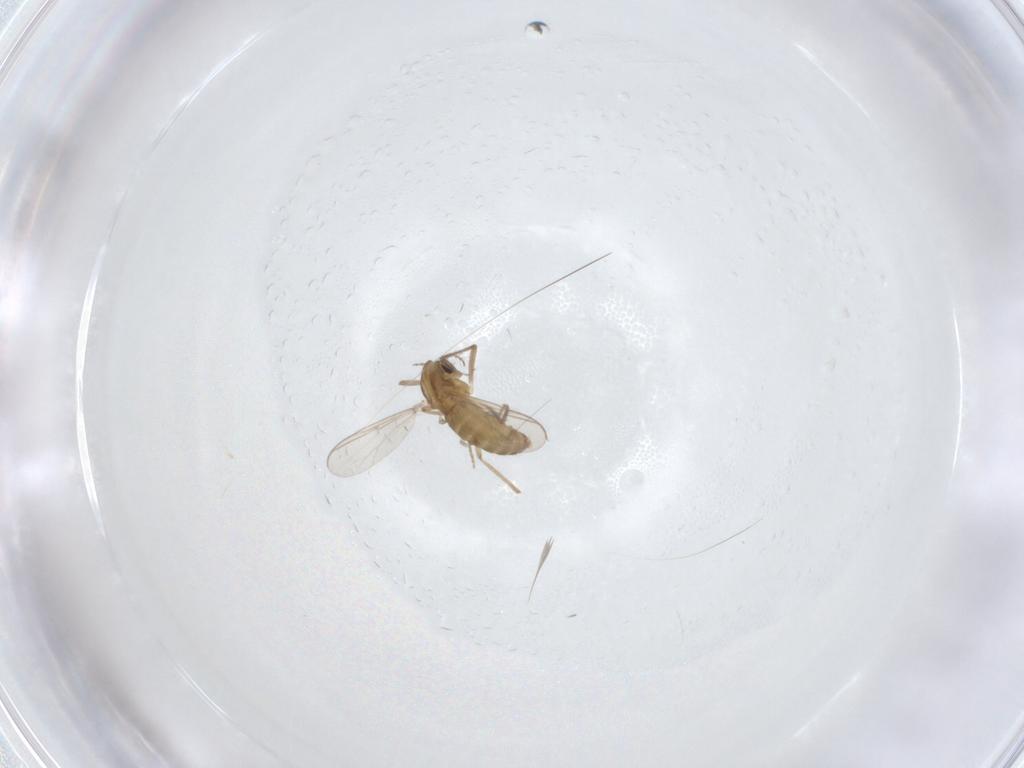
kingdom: Animalia
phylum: Arthropoda
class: Insecta
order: Diptera
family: Chironomidae
